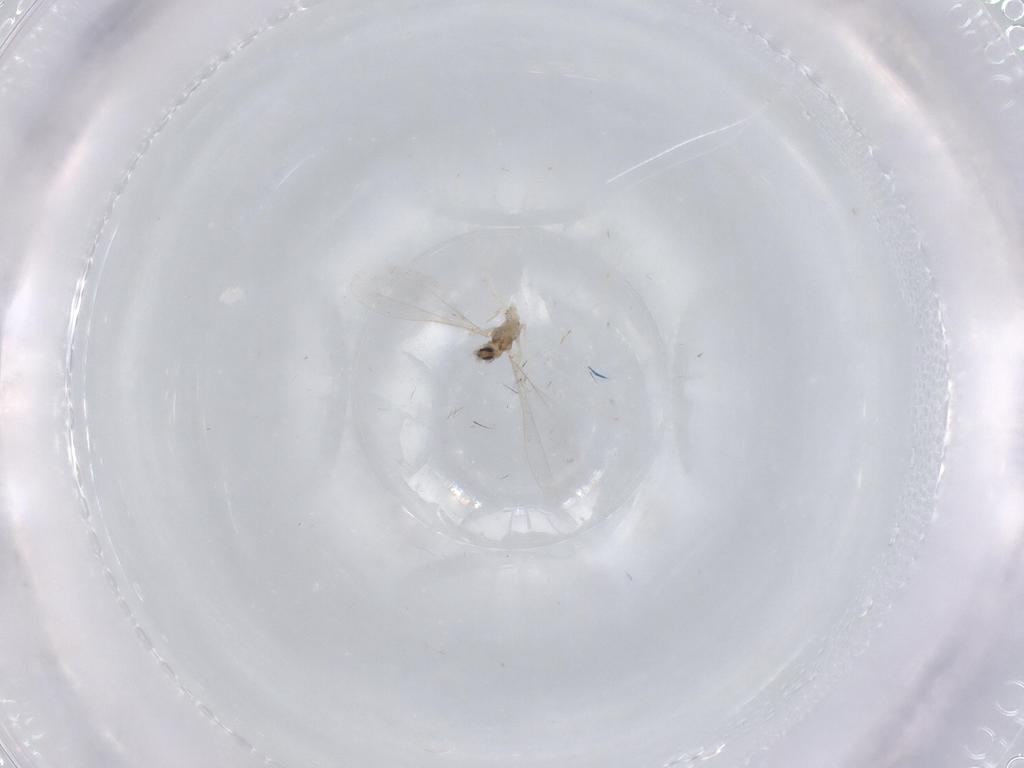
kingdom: Animalia
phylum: Arthropoda
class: Insecta
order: Diptera
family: Cecidomyiidae
